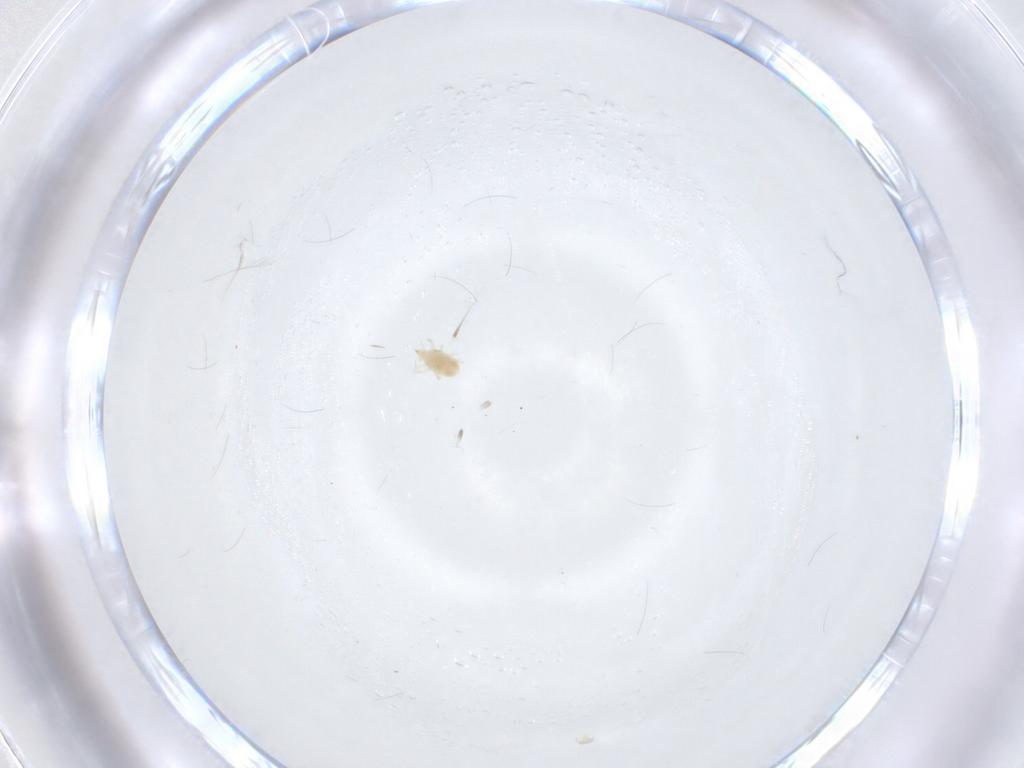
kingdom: Animalia
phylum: Arthropoda
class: Arachnida
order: Trombidiformes
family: Bdellidae
